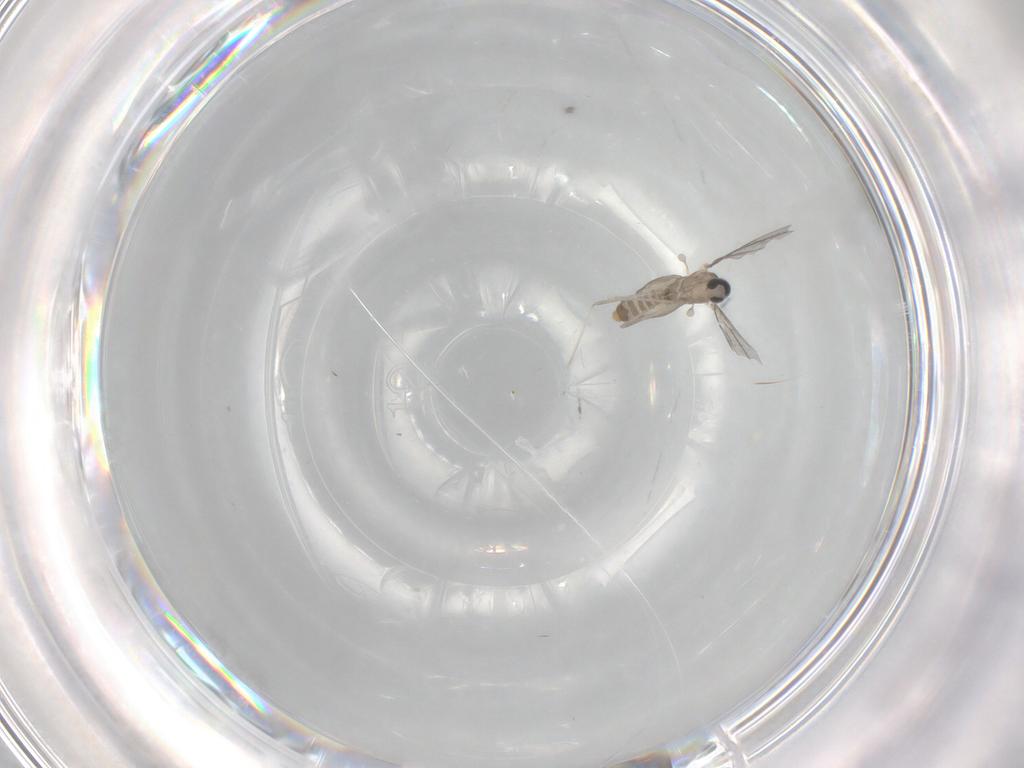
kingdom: Animalia
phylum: Arthropoda
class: Insecta
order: Diptera
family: Cecidomyiidae
